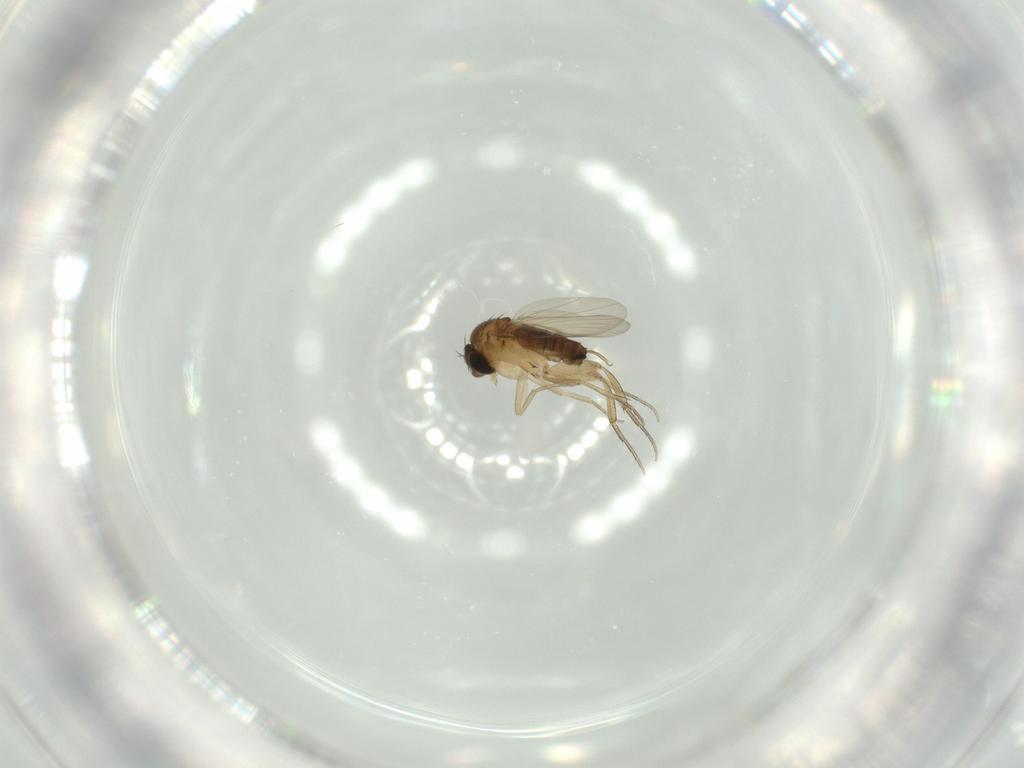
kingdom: Animalia
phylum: Arthropoda
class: Insecta
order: Diptera
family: Phoridae
